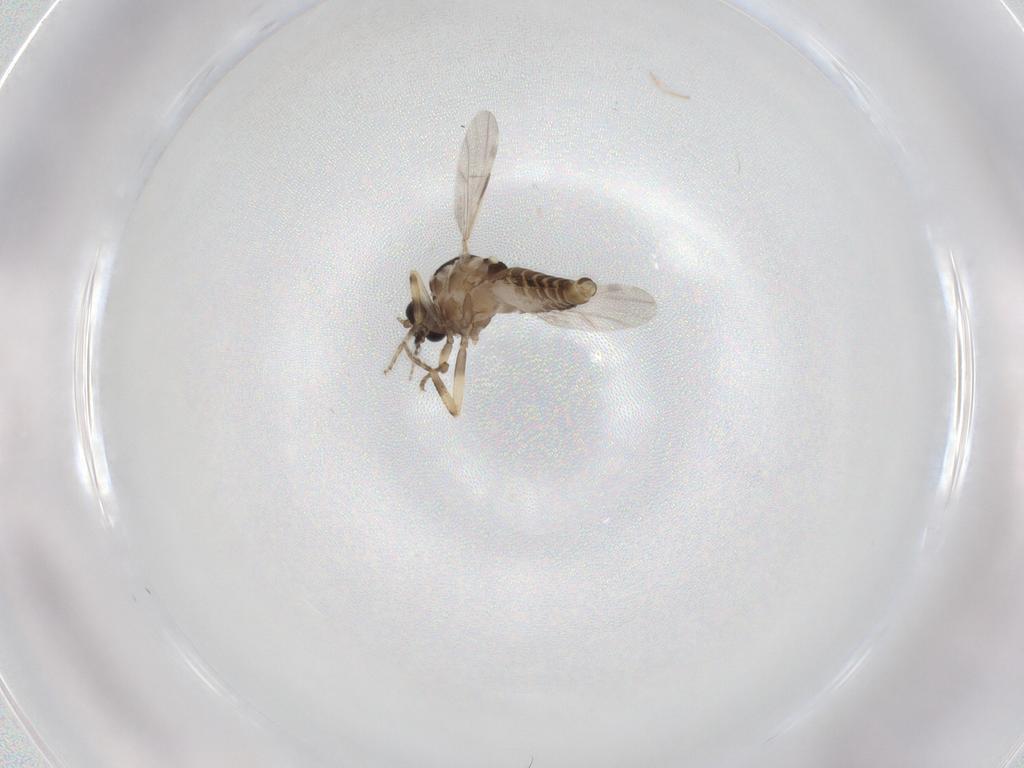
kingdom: Animalia
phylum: Arthropoda
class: Insecta
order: Diptera
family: Ceratopogonidae
